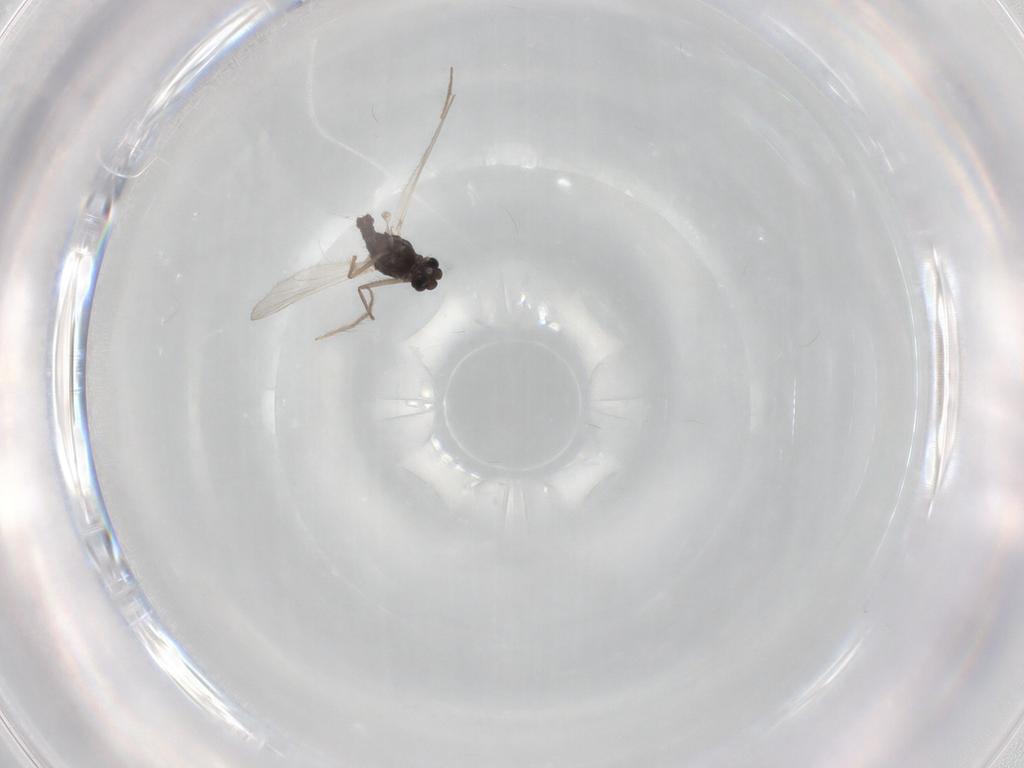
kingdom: Animalia
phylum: Arthropoda
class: Insecta
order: Diptera
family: Chironomidae
